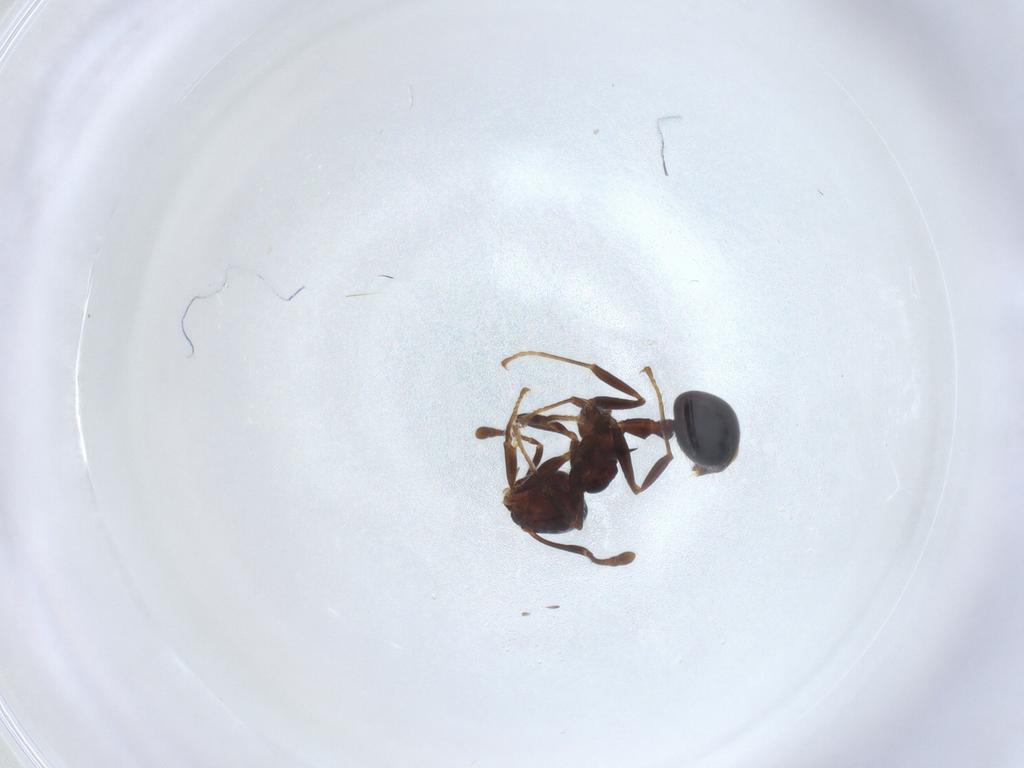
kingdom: Animalia
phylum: Arthropoda
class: Insecta
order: Hymenoptera
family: Formicidae
